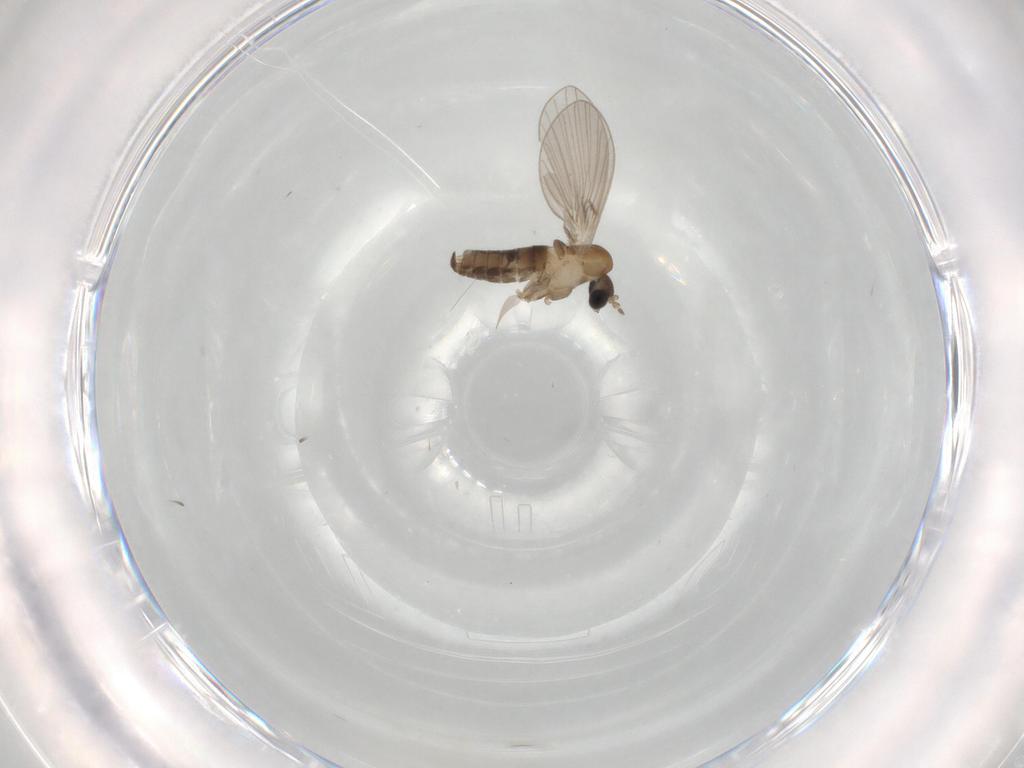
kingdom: Animalia
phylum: Arthropoda
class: Insecta
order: Diptera
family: Psychodidae
